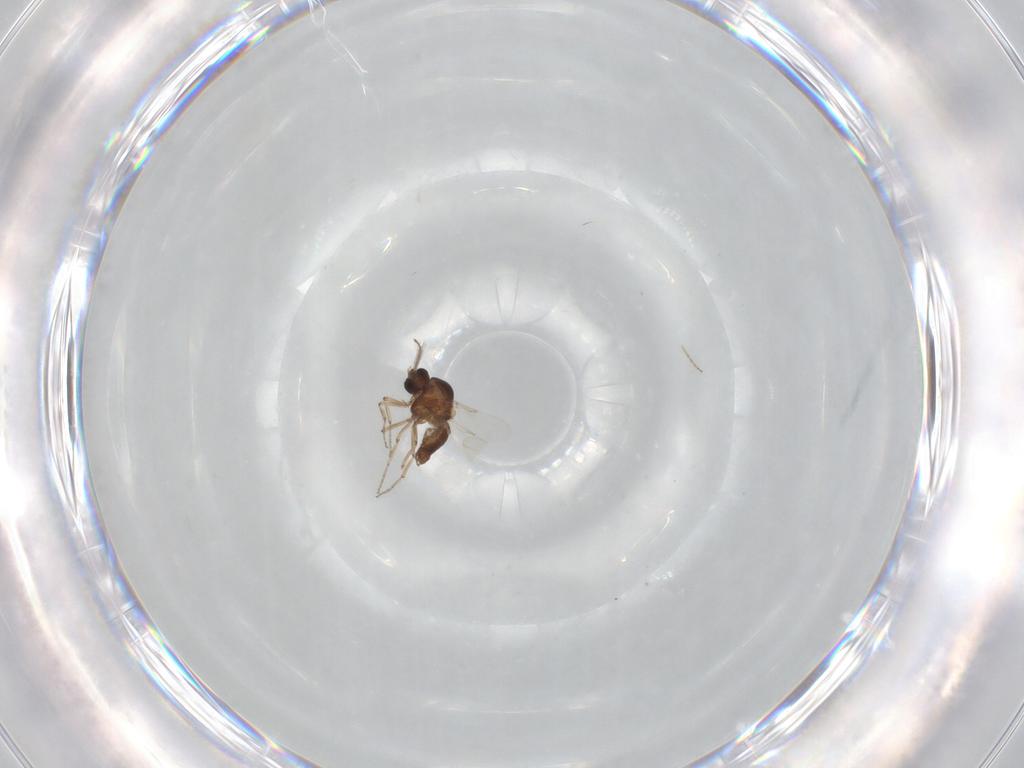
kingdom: Animalia
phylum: Arthropoda
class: Insecta
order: Diptera
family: Ceratopogonidae
